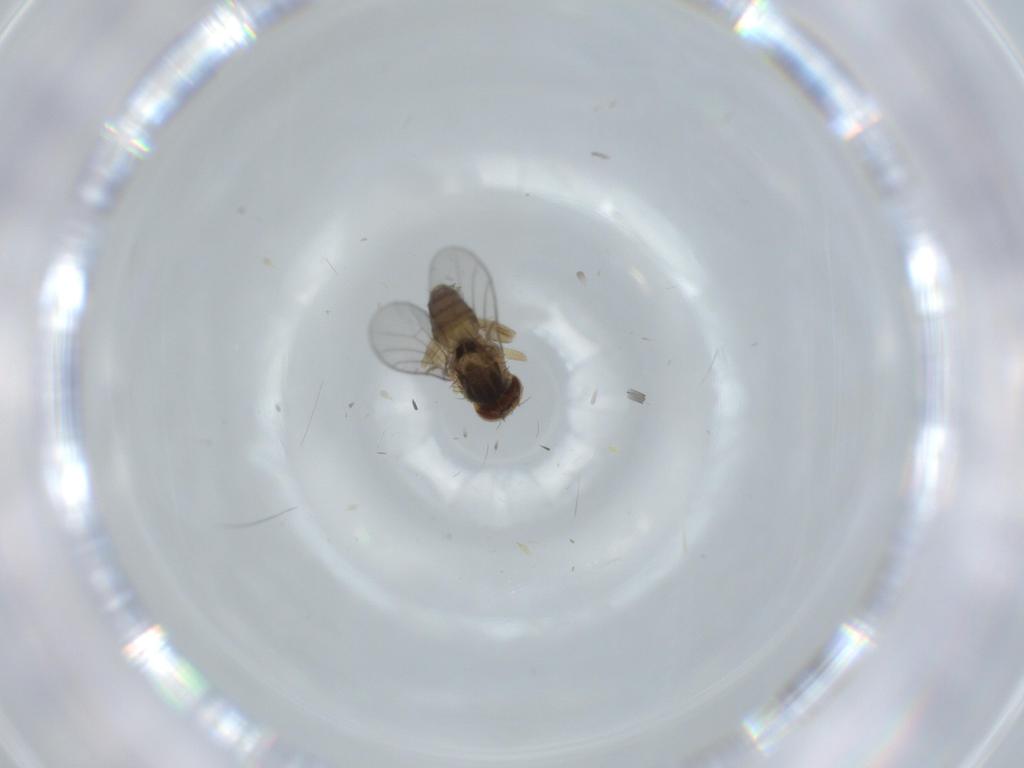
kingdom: Animalia
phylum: Arthropoda
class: Insecta
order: Diptera
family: Chloropidae
